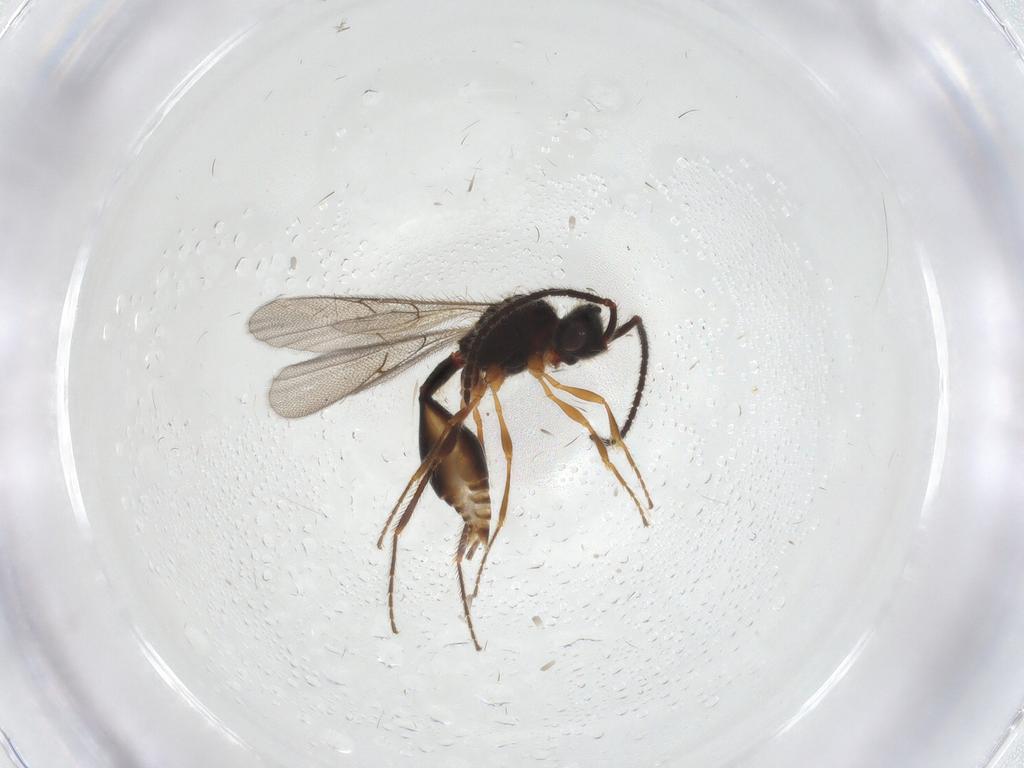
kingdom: Animalia
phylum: Arthropoda
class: Insecta
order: Hymenoptera
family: Diapriidae
